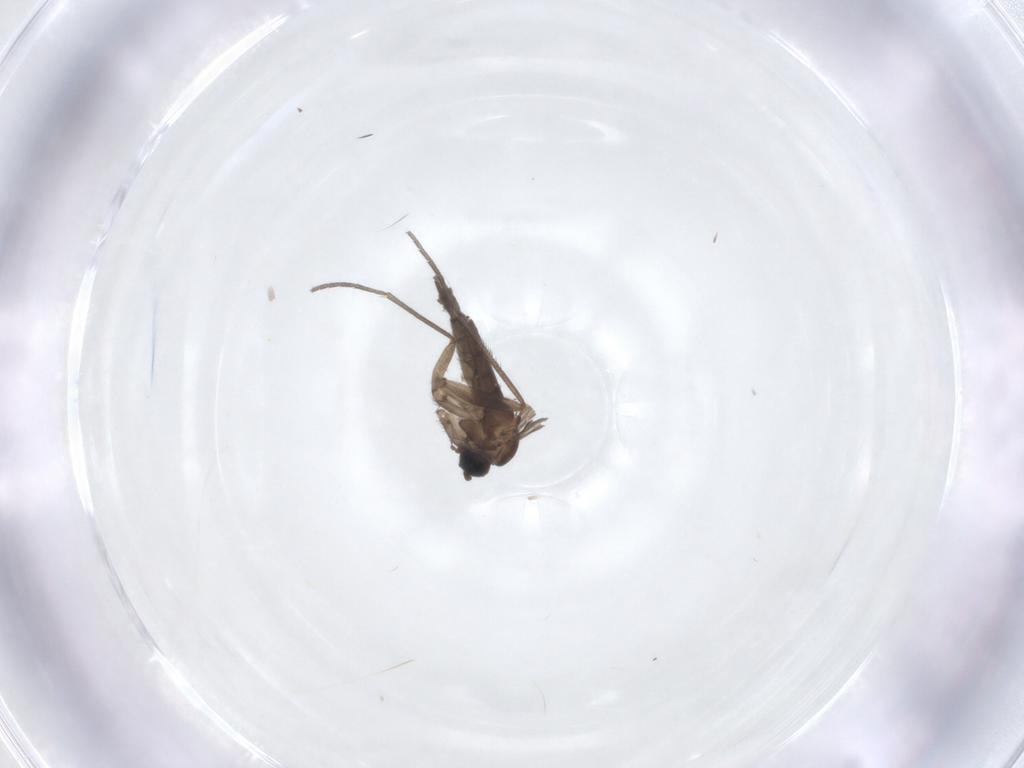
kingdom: Animalia
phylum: Arthropoda
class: Insecta
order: Diptera
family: Sciaridae
